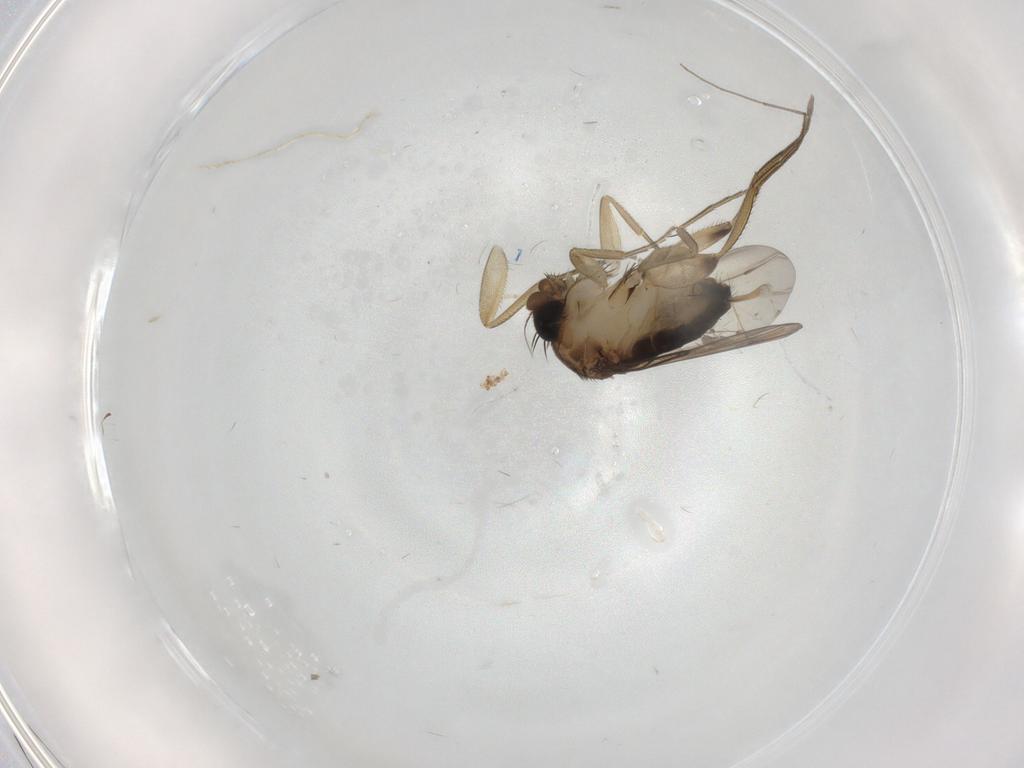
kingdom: Animalia
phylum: Arthropoda
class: Insecta
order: Diptera
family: Phoridae
